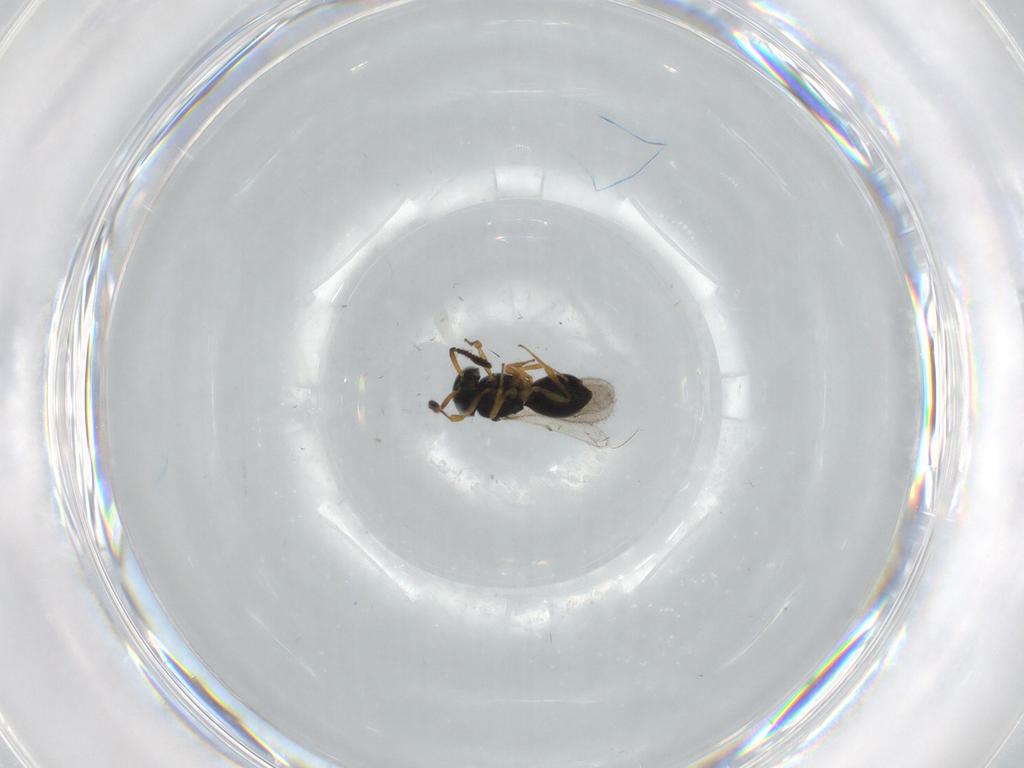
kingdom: Animalia
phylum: Arthropoda
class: Insecta
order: Hymenoptera
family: Scelionidae
